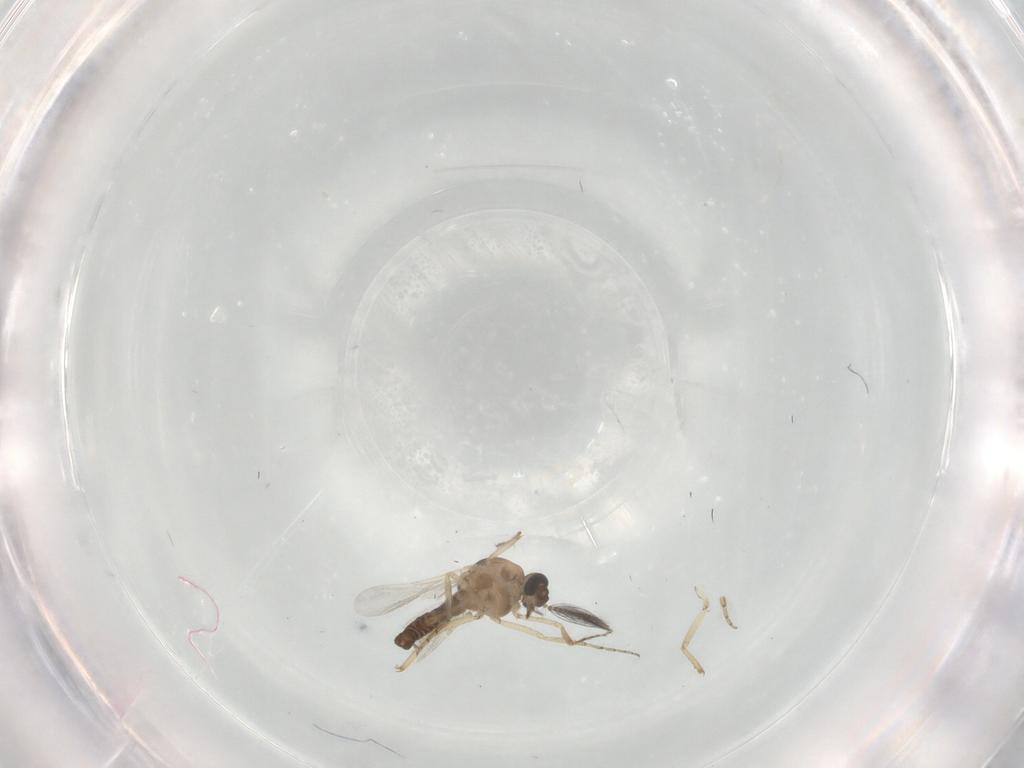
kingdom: Animalia
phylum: Arthropoda
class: Insecta
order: Diptera
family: Ceratopogonidae
